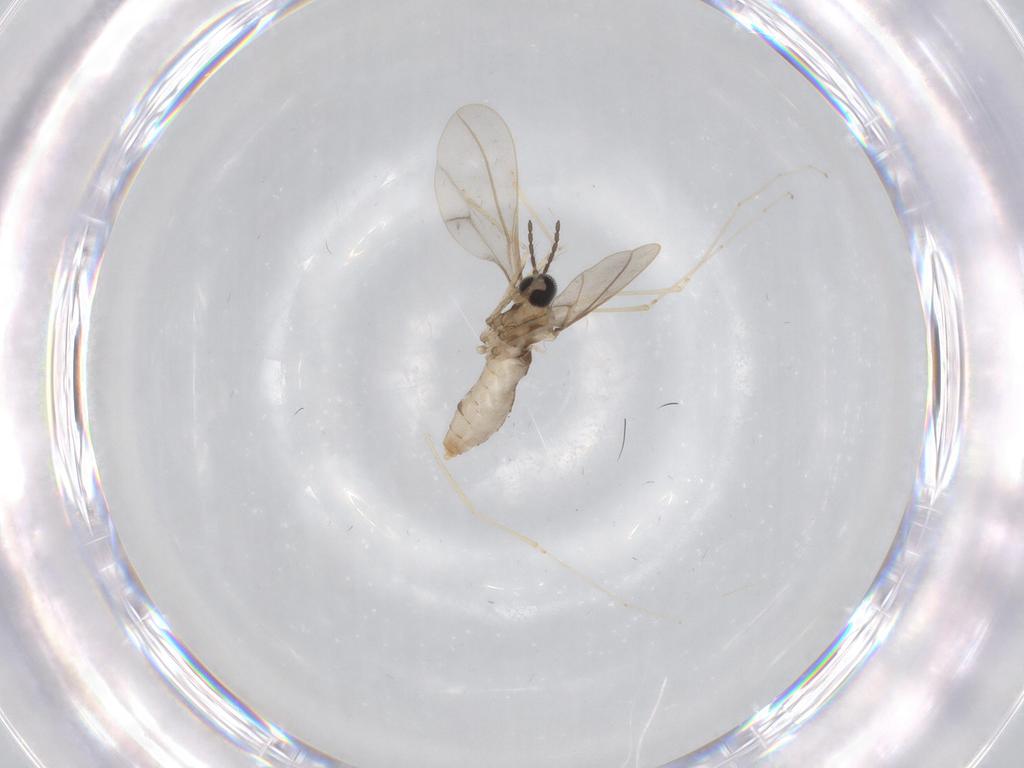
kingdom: Animalia
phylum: Arthropoda
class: Insecta
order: Diptera
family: Cecidomyiidae
